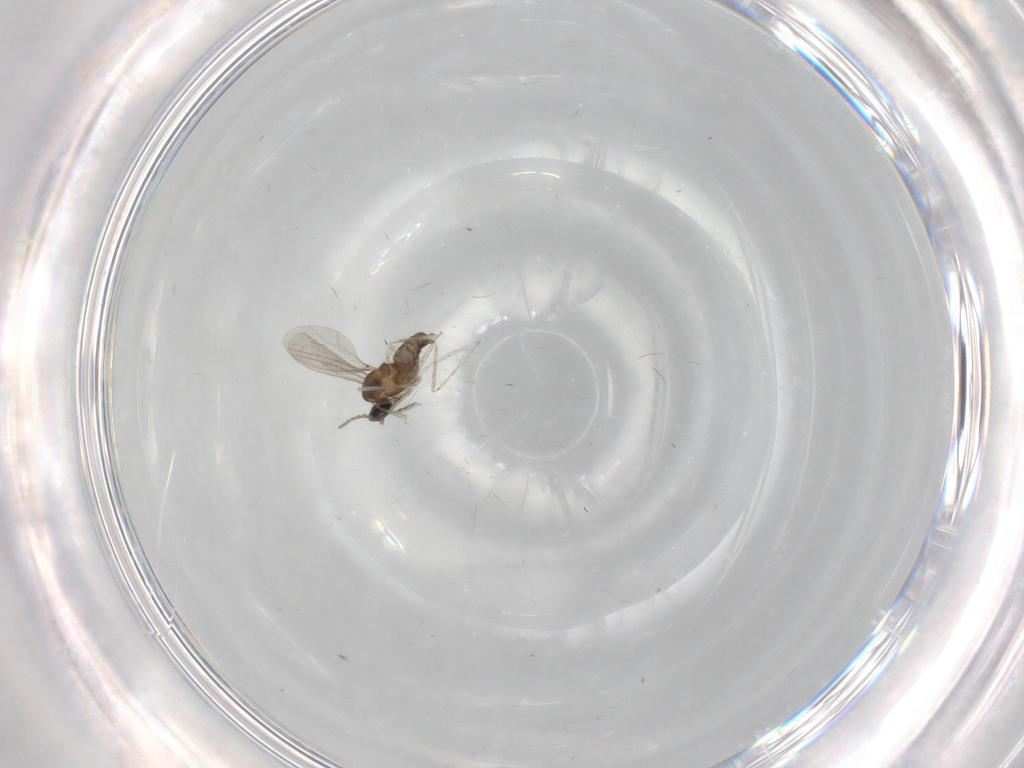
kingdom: Animalia
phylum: Arthropoda
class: Insecta
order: Diptera
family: Cecidomyiidae
